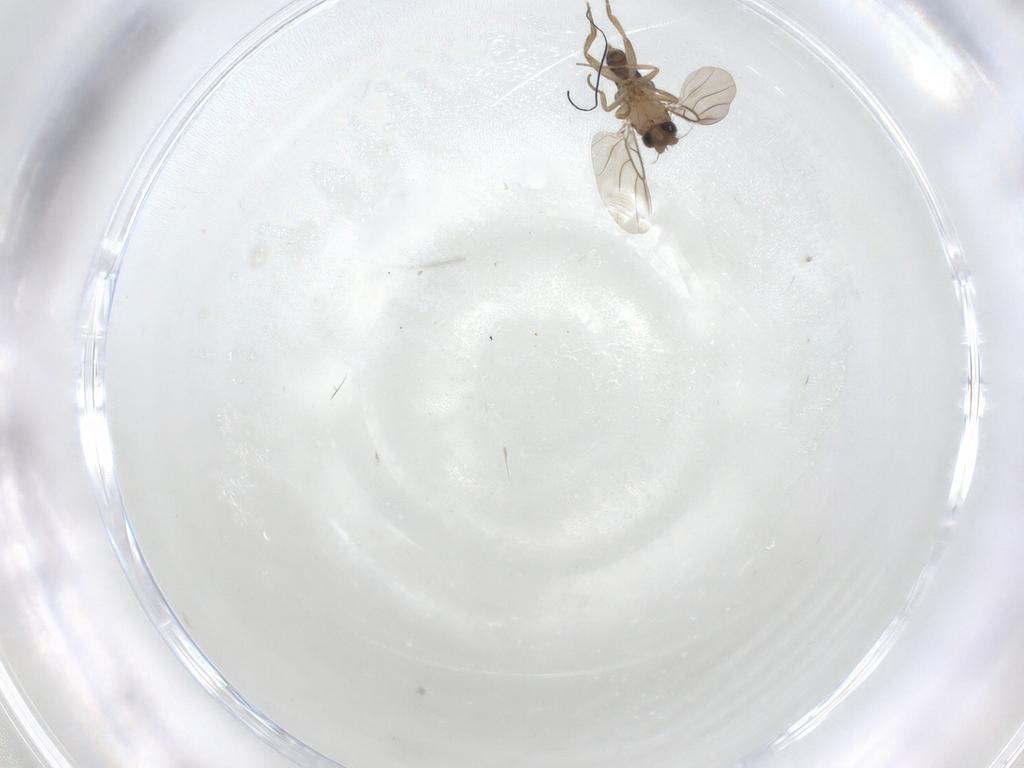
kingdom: Animalia
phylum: Arthropoda
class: Insecta
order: Diptera
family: Phoridae
